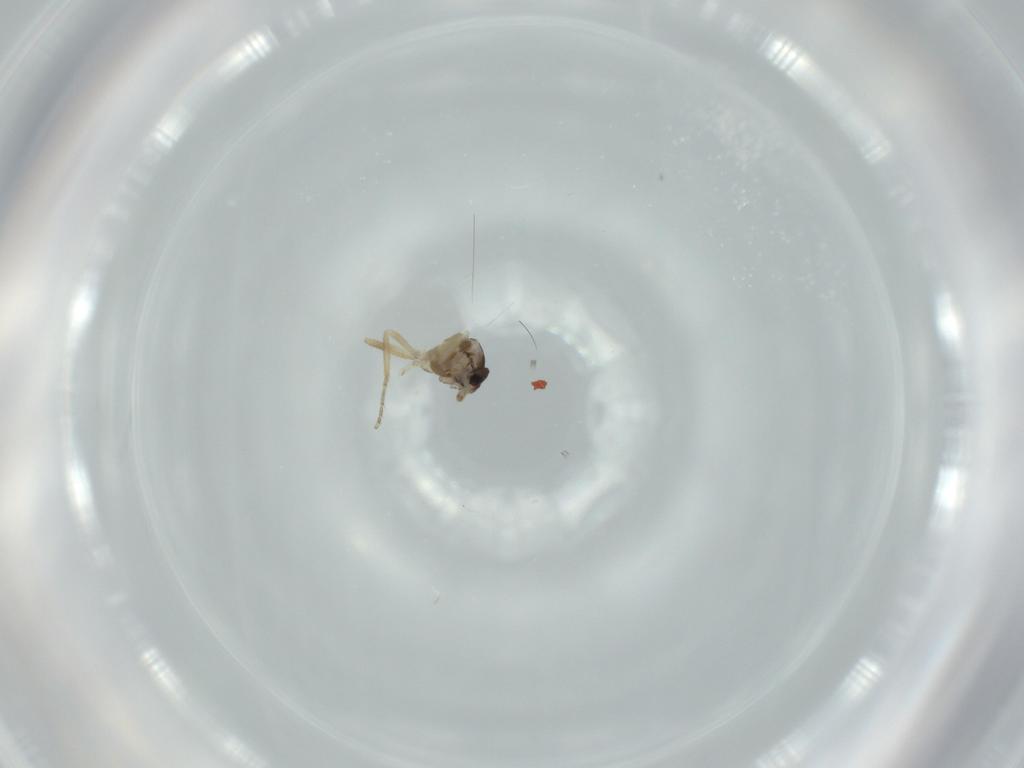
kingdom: Animalia
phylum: Arthropoda
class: Insecta
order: Diptera
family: Ceratopogonidae
